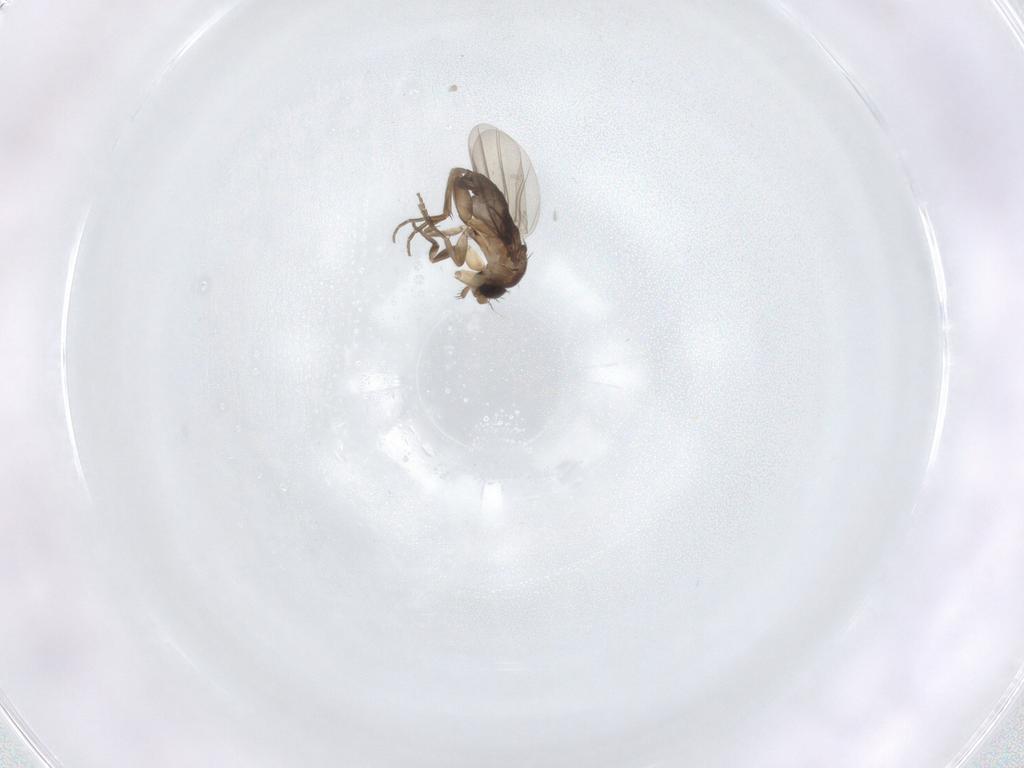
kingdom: Animalia
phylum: Arthropoda
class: Insecta
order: Diptera
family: Phoridae
